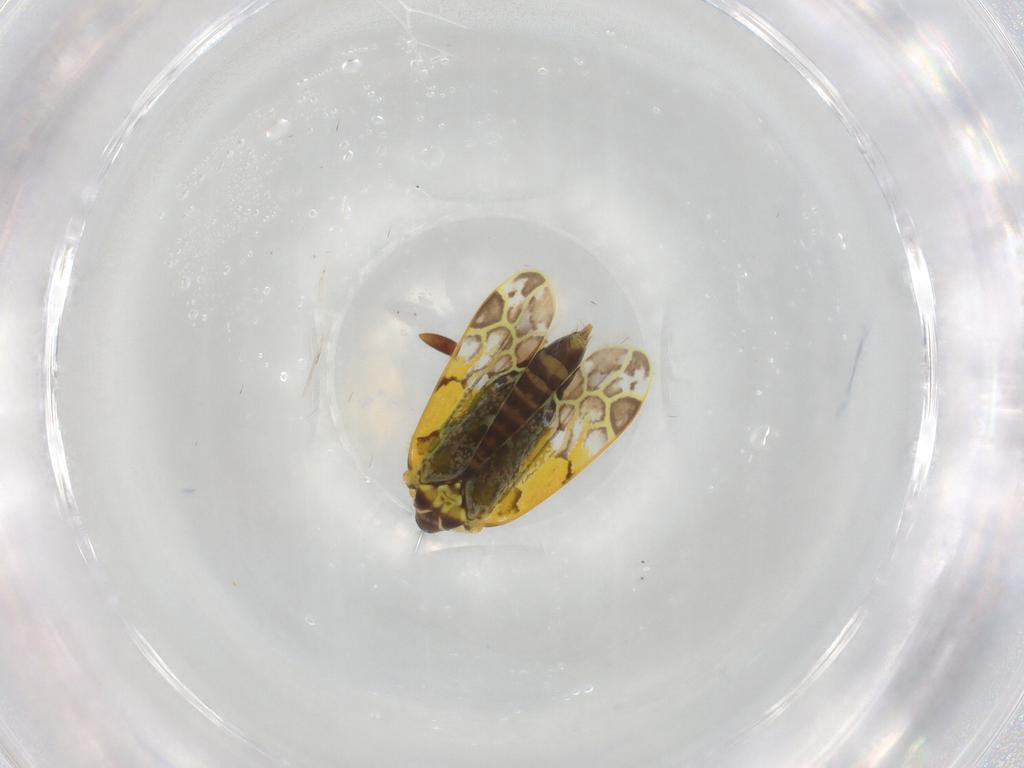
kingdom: Animalia
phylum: Arthropoda
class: Insecta
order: Hemiptera
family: Cicadellidae
